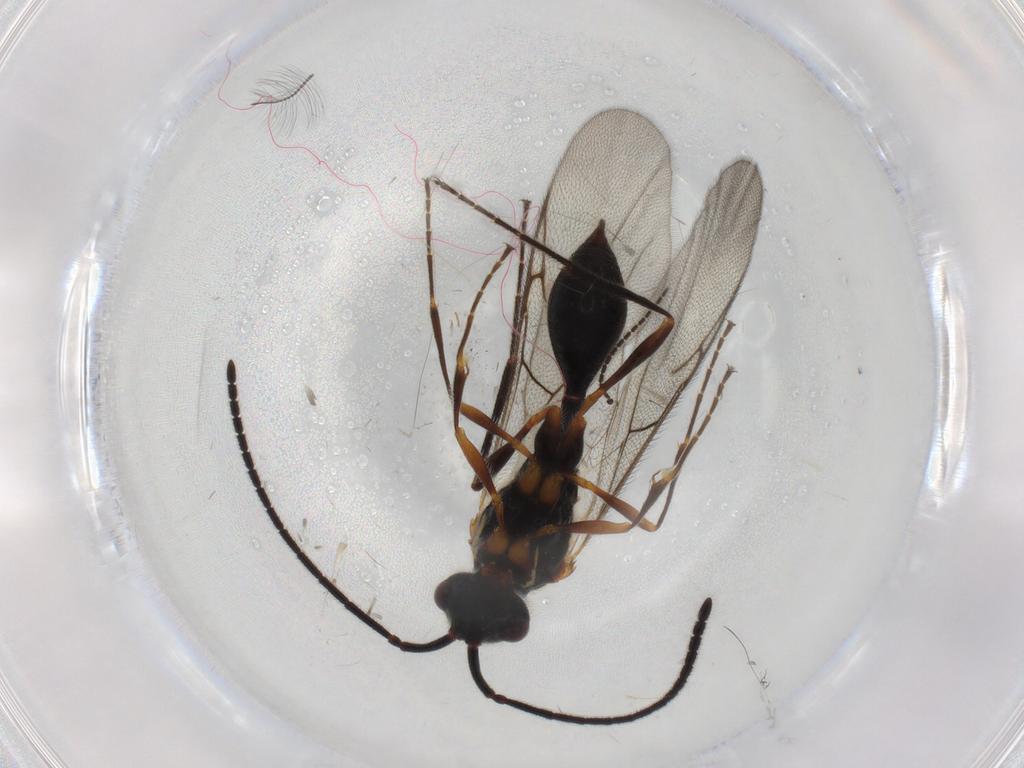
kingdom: Animalia
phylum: Arthropoda
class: Insecta
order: Hymenoptera
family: Diapriidae
